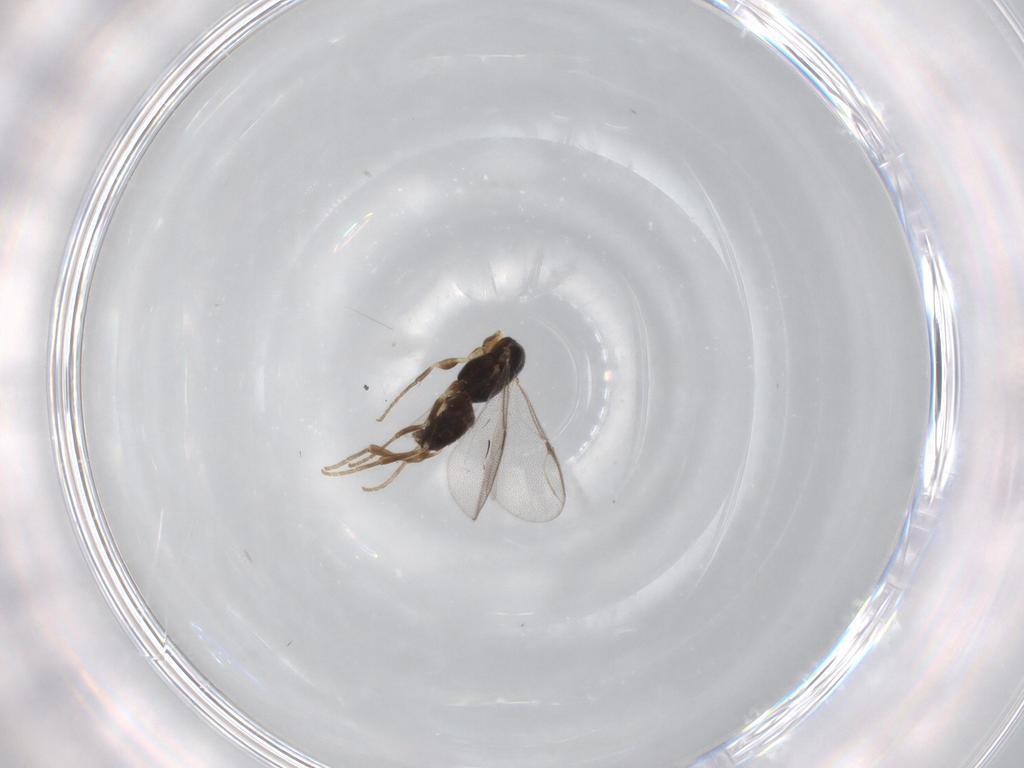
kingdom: Animalia
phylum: Arthropoda
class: Insecta
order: Hymenoptera
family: Dryinidae
